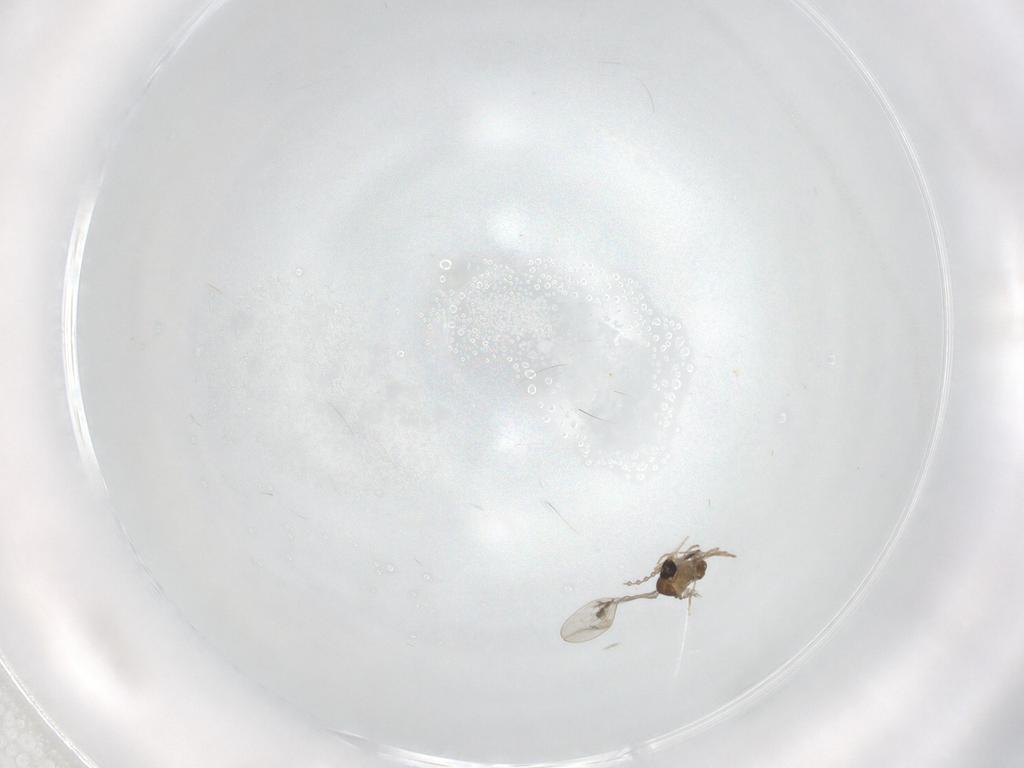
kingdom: Animalia
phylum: Arthropoda
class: Insecta
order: Diptera
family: Cecidomyiidae
